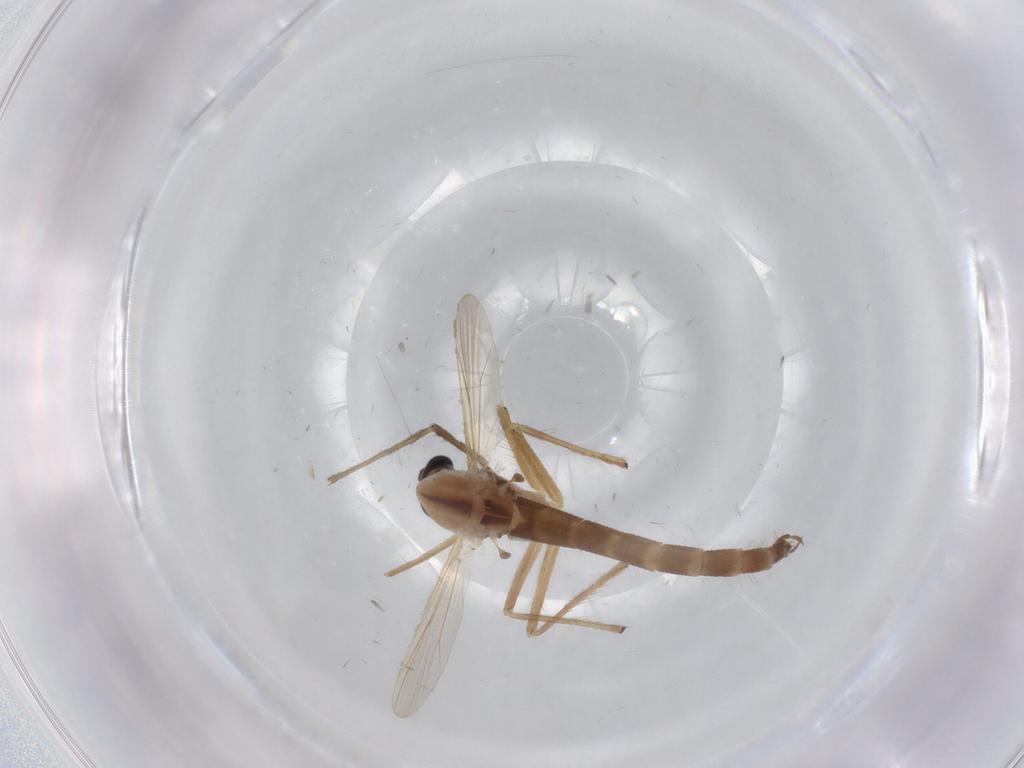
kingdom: Animalia
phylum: Arthropoda
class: Insecta
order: Diptera
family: Chironomidae
